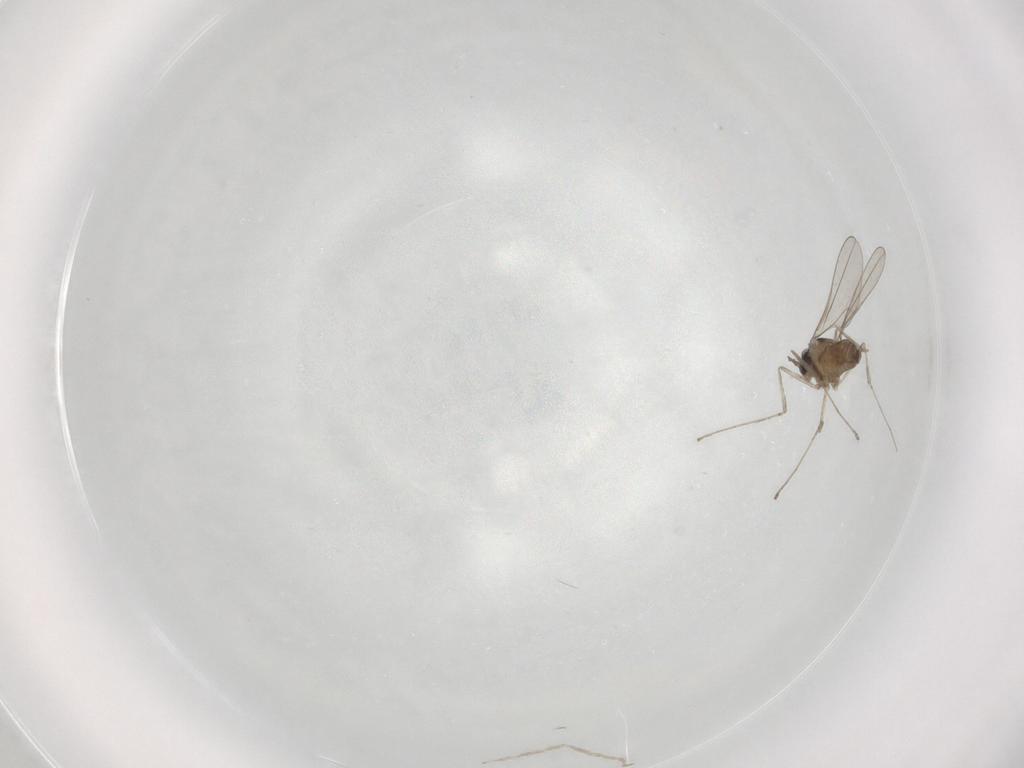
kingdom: Animalia
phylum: Arthropoda
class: Insecta
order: Diptera
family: Cecidomyiidae
